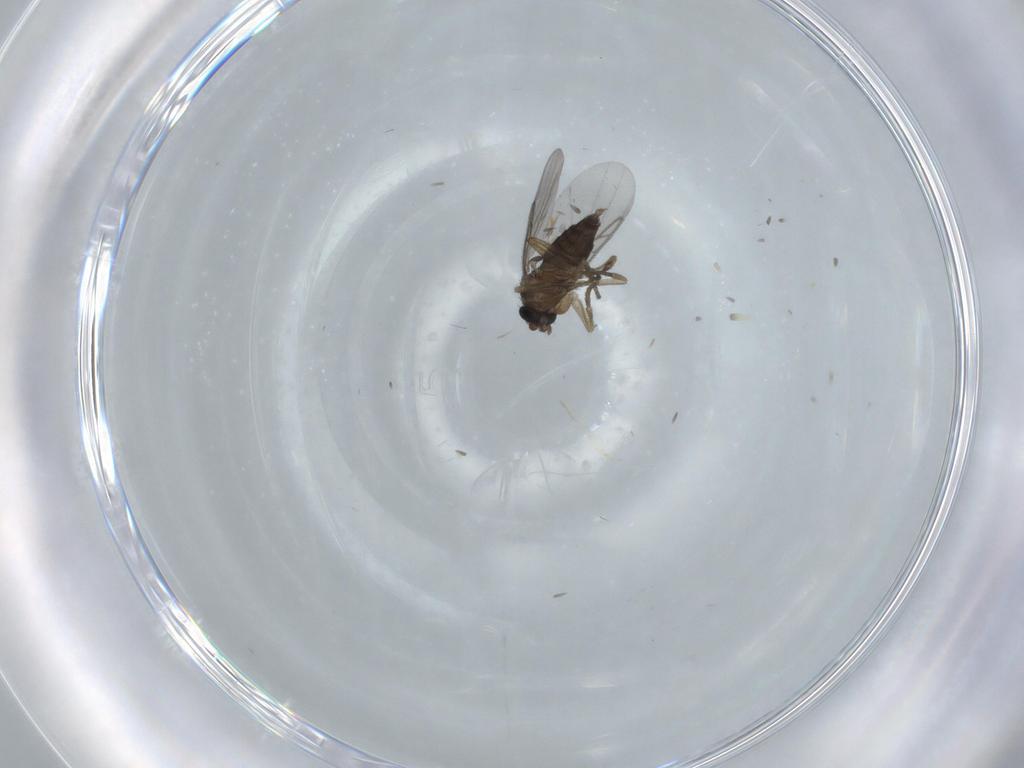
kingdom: Animalia
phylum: Arthropoda
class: Insecta
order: Diptera
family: Sciaridae
